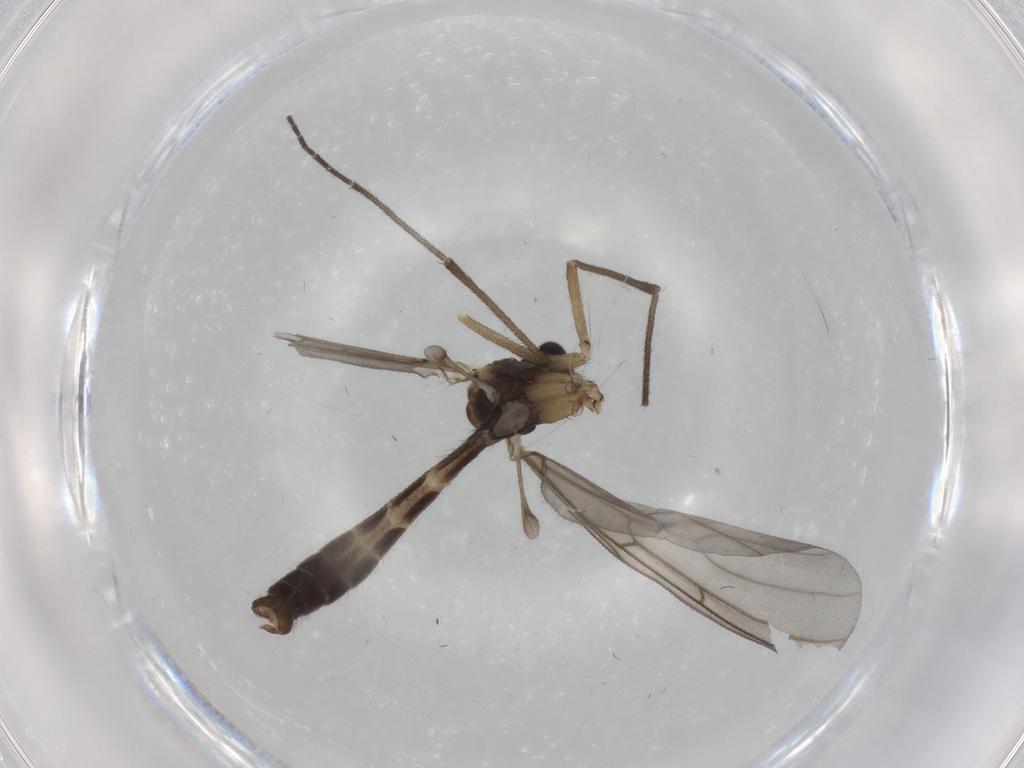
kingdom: Animalia
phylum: Arthropoda
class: Insecta
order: Diptera
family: Mycetophilidae
